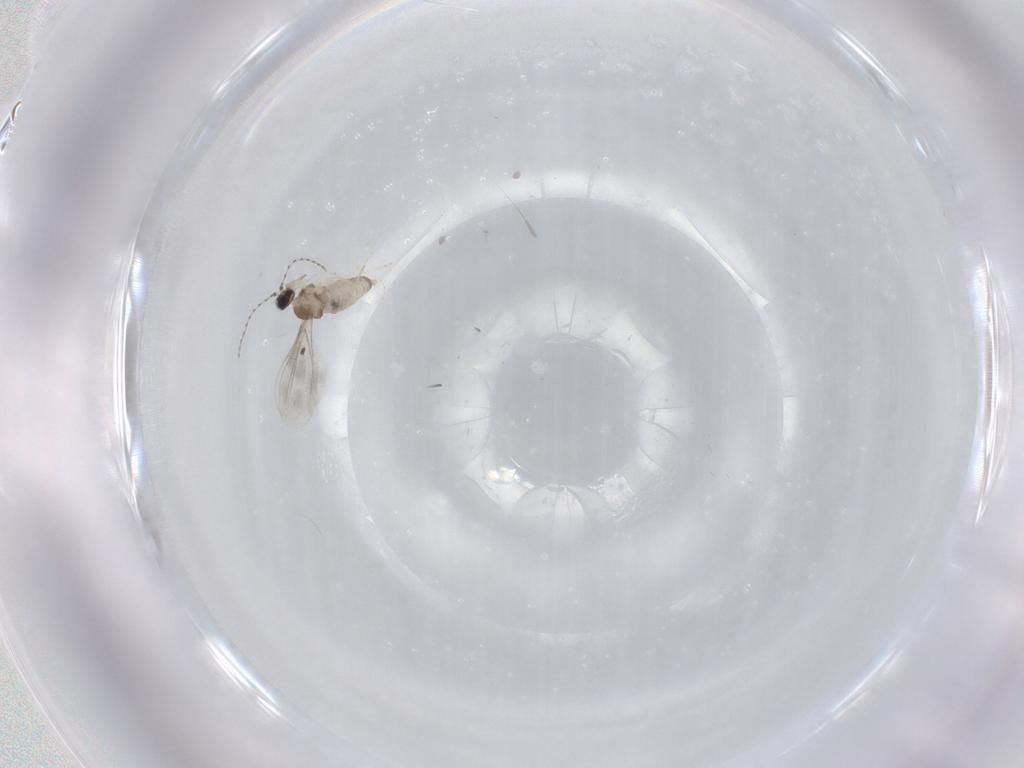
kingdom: Animalia
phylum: Arthropoda
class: Insecta
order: Diptera
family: Cecidomyiidae
